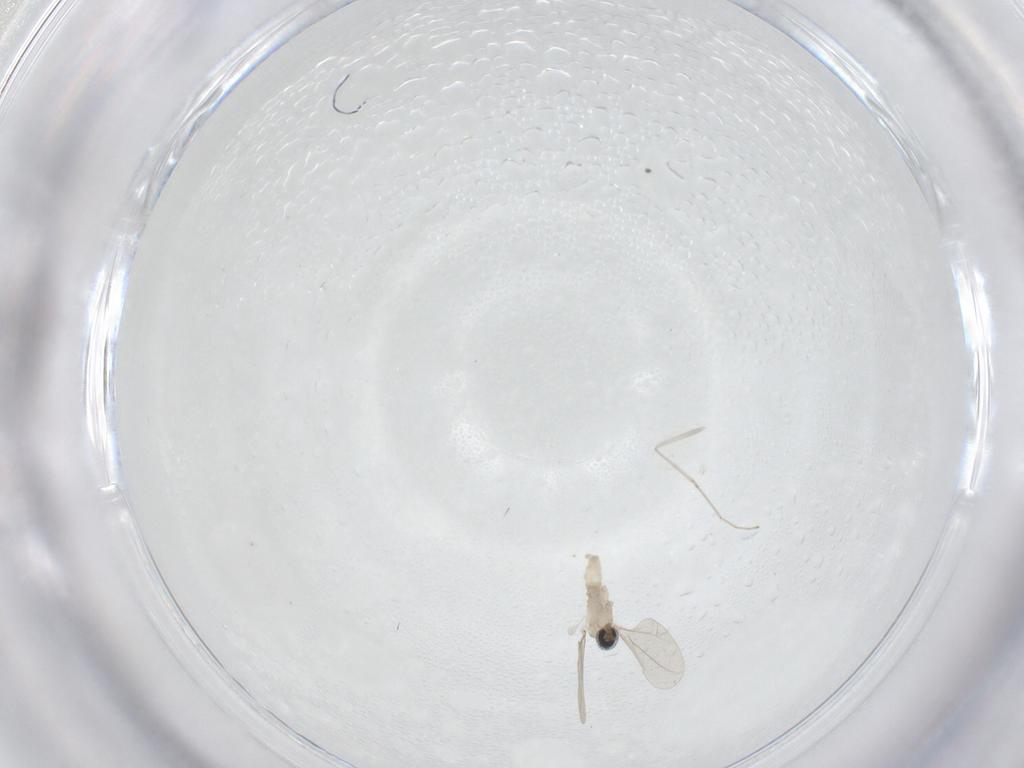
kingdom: Animalia
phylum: Arthropoda
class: Insecta
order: Diptera
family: Cecidomyiidae
